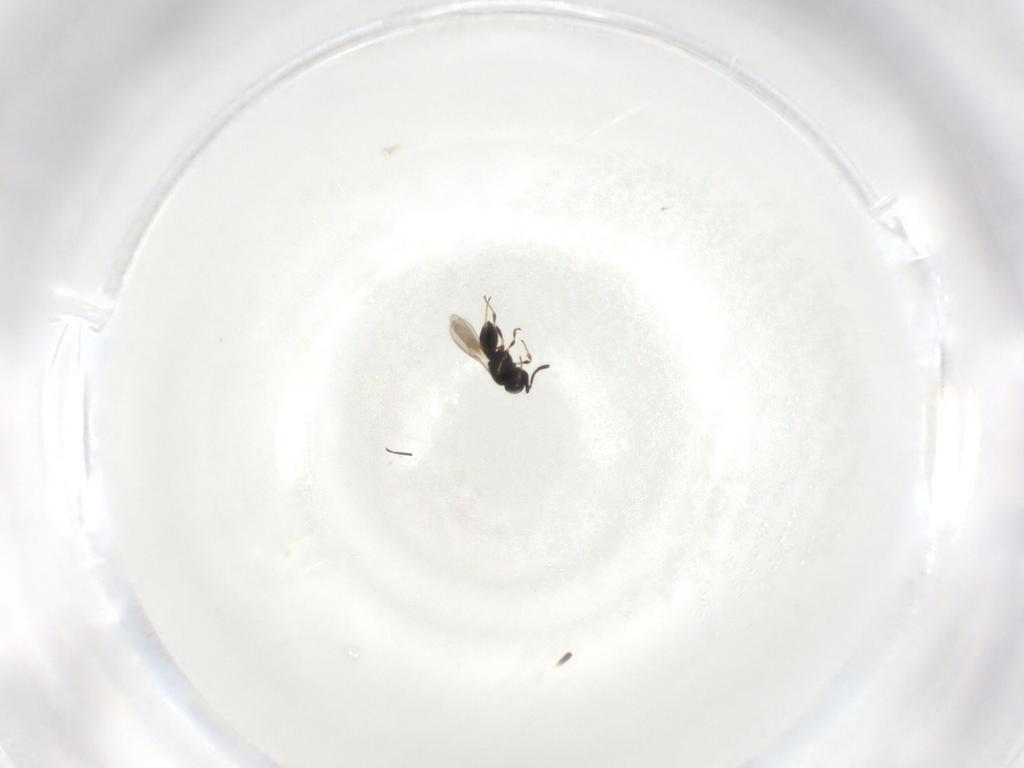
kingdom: Animalia
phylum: Arthropoda
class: Insecta
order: Hymenoptera
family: Scelionidae
